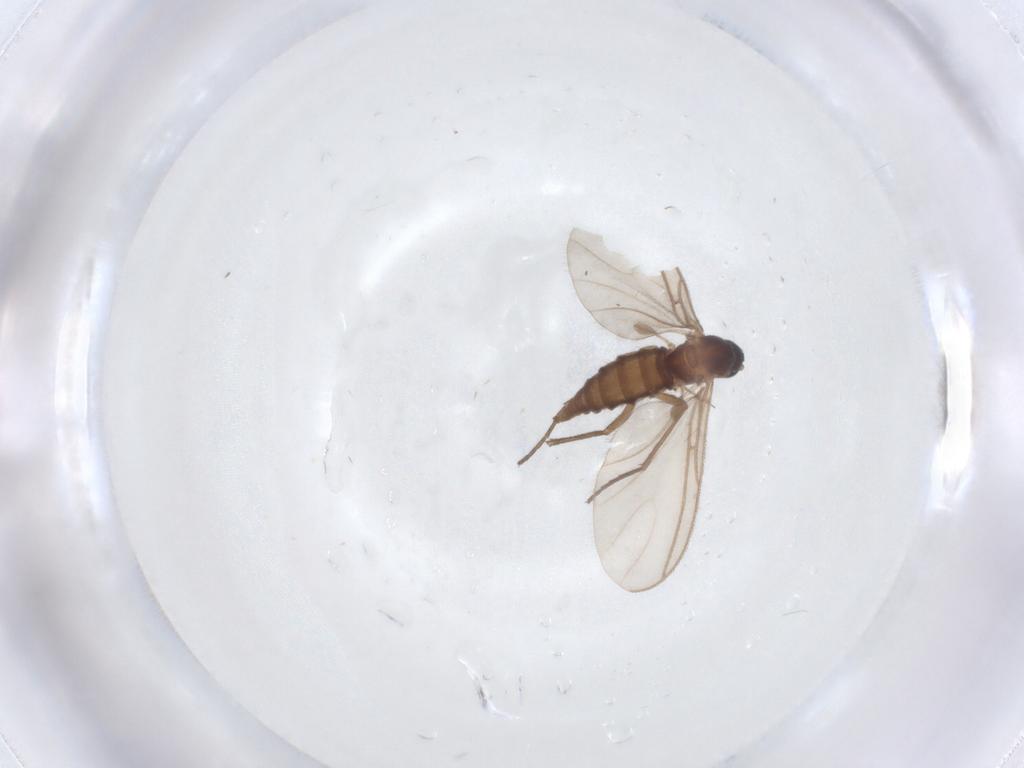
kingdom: Animalia
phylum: Arthropoda
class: Insecta
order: Diptera
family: Sciaridae
